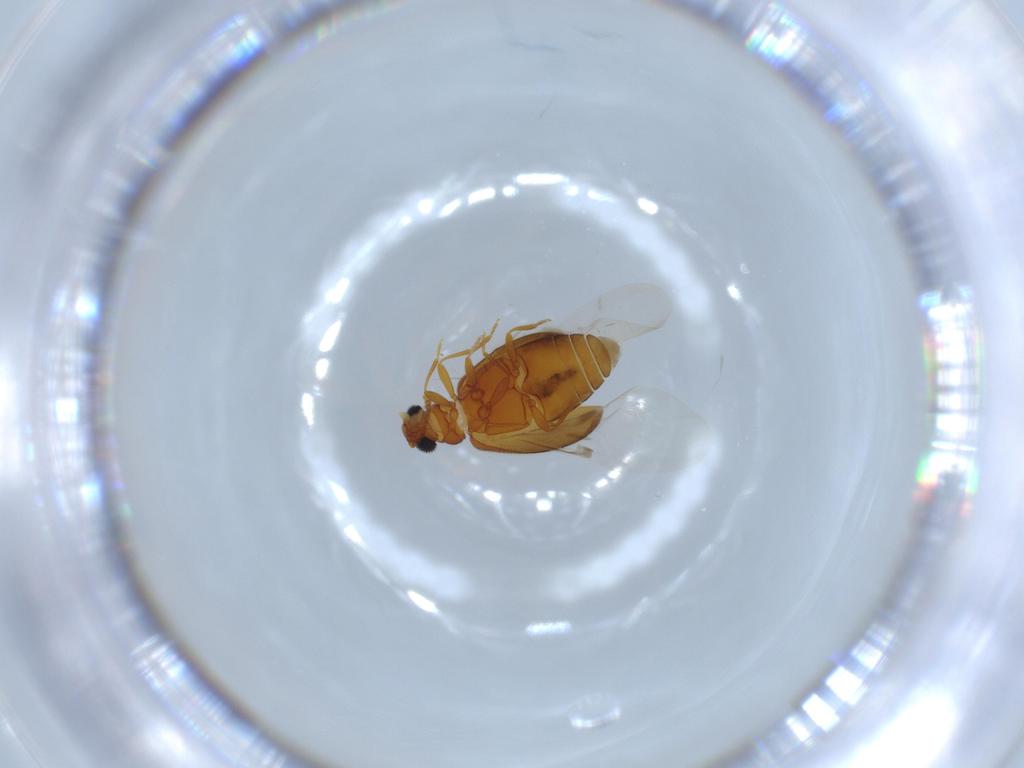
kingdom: Animalia
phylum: Arthropoda
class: Insecta
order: Coleoptera
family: Aderidae
